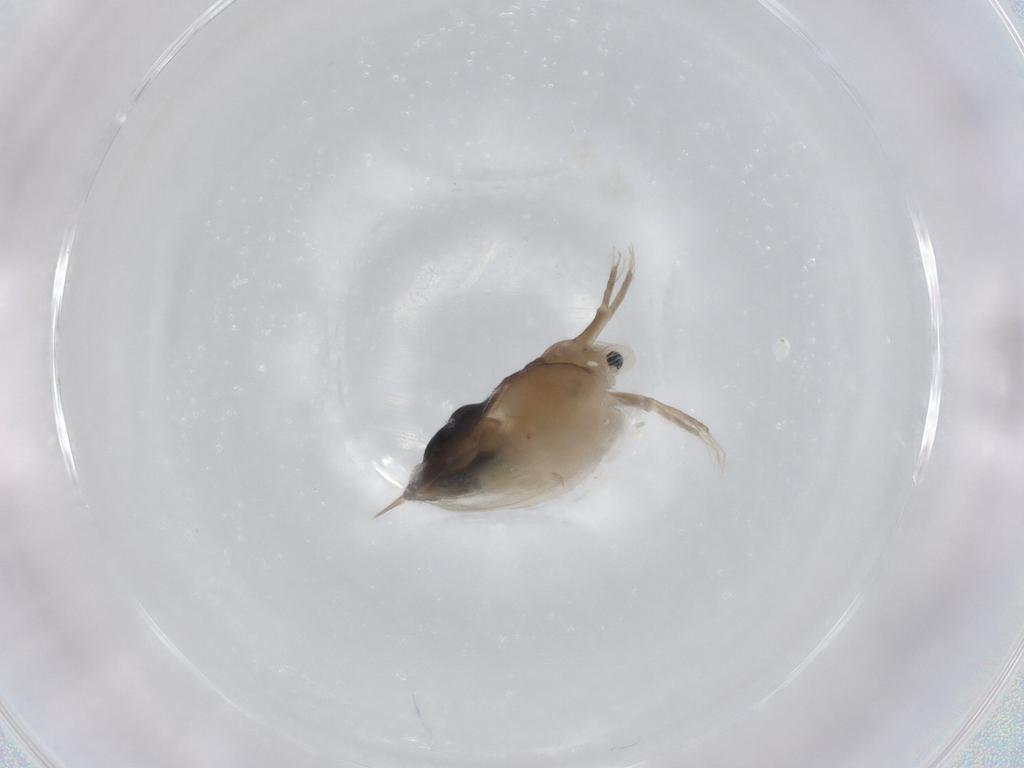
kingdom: Animalia
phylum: Arthropoda
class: Branchiopoda
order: Diplostraca
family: Daphniidae
